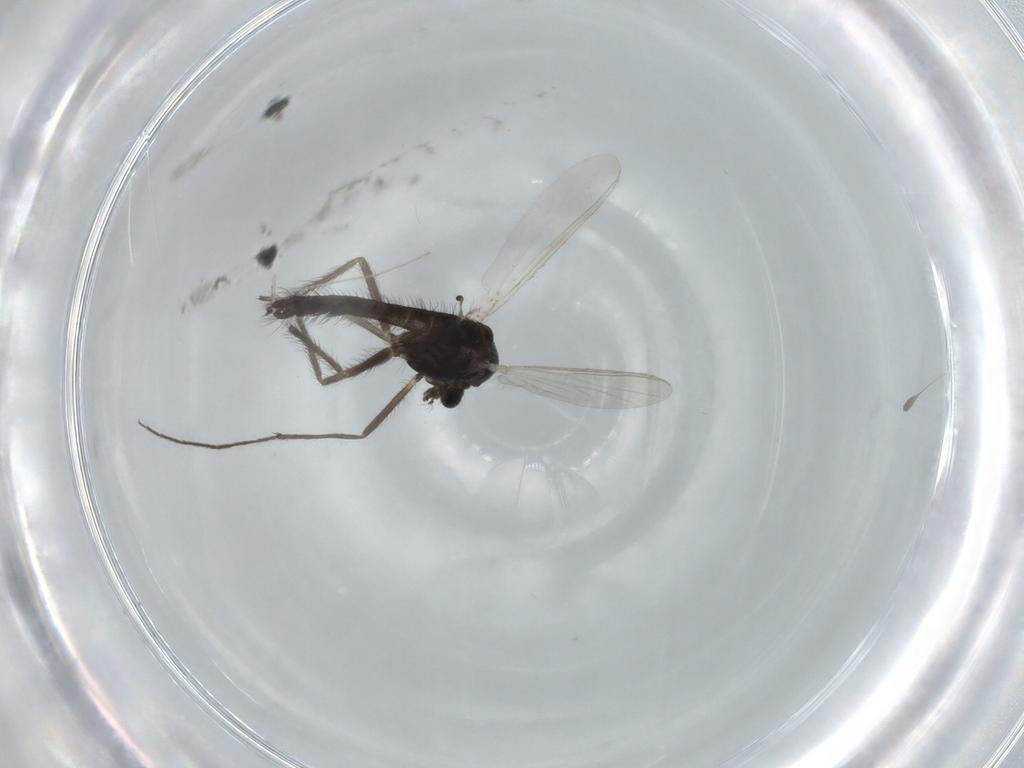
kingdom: Animalia
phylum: Arthropoda
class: Insecta
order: Diptera
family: Chironomidae
